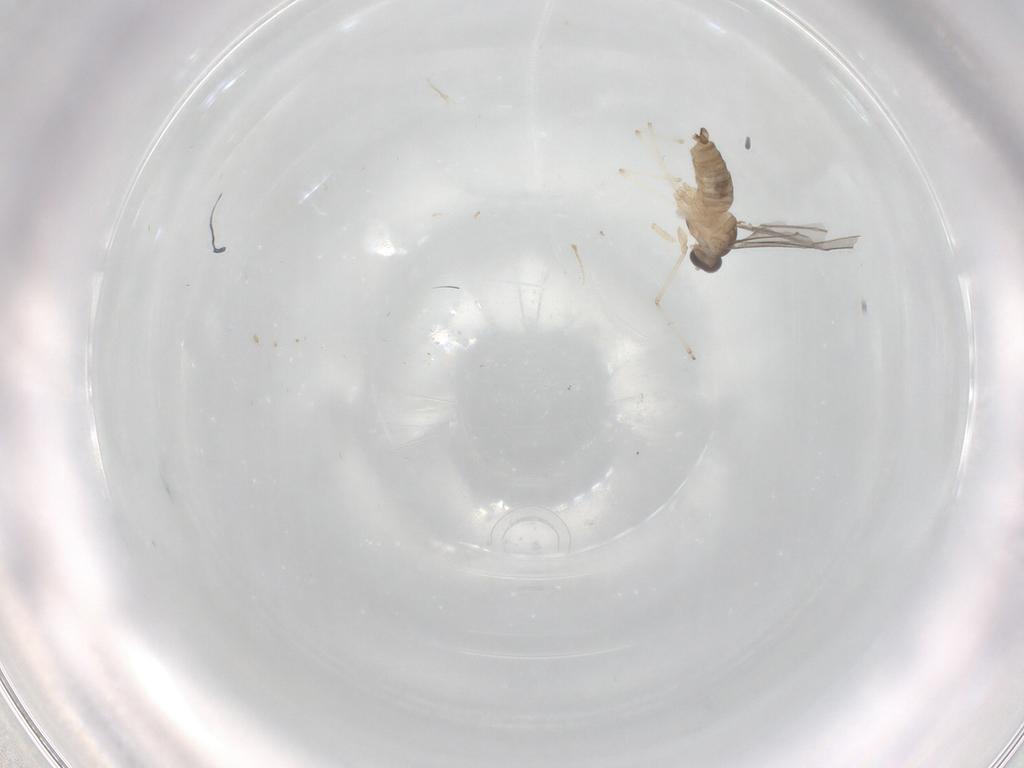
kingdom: Animalia
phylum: Arthropoda
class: Insecta
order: Diptera
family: Cecidomyiidae
